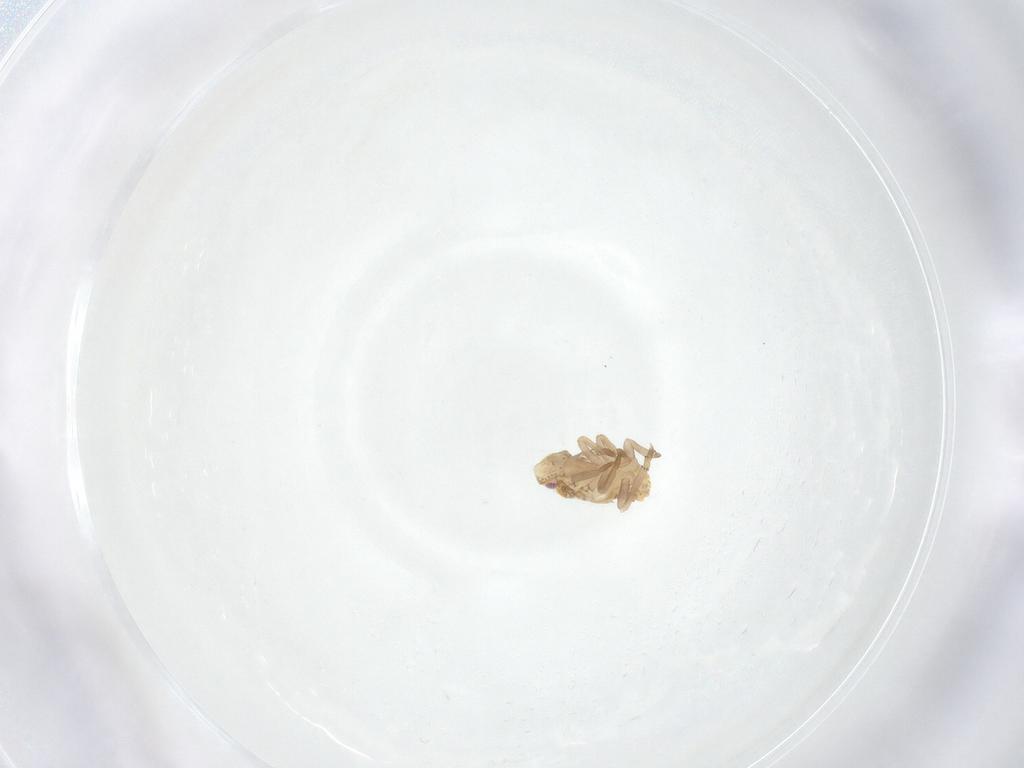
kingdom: Animalia
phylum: Arthropoda
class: Insecta
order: Hemiptera
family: Flatidae
